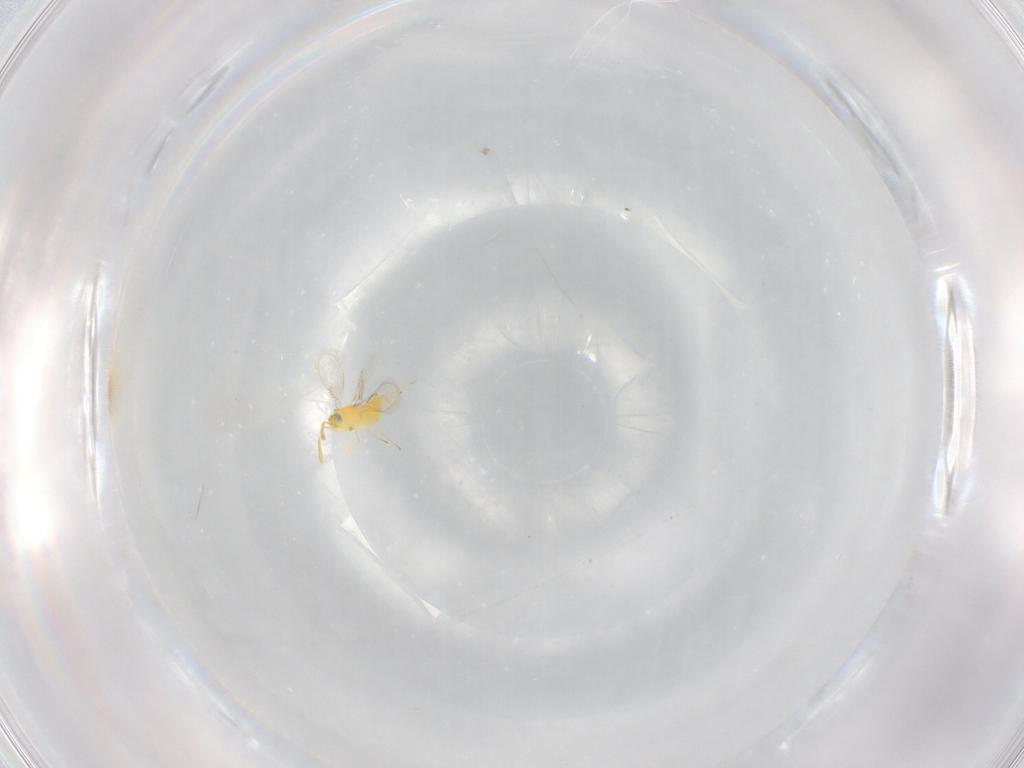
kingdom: Animalia
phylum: Arthropoda
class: Insecta
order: Hymenoptera
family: Aphelinidae
